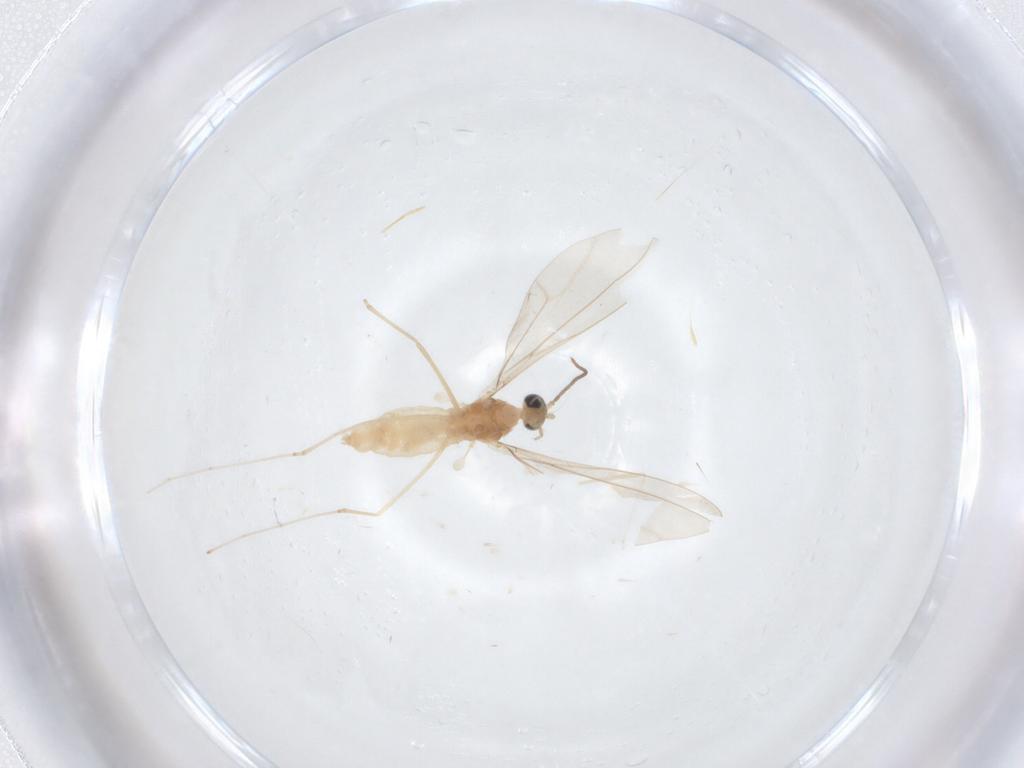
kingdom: Animalia
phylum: Arthropoda
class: Insecta
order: Diptera
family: Cecidomyiidae
